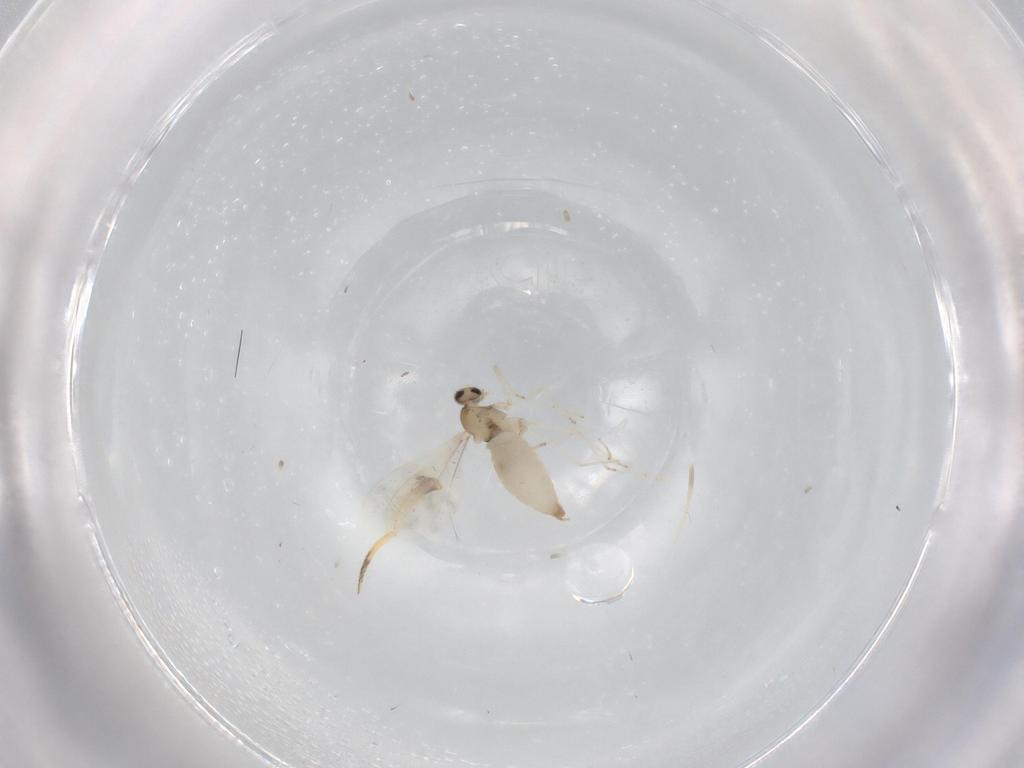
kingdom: Animalia
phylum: Arthropoda
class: Insecta
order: Diptera
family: Cecidomyiidae
